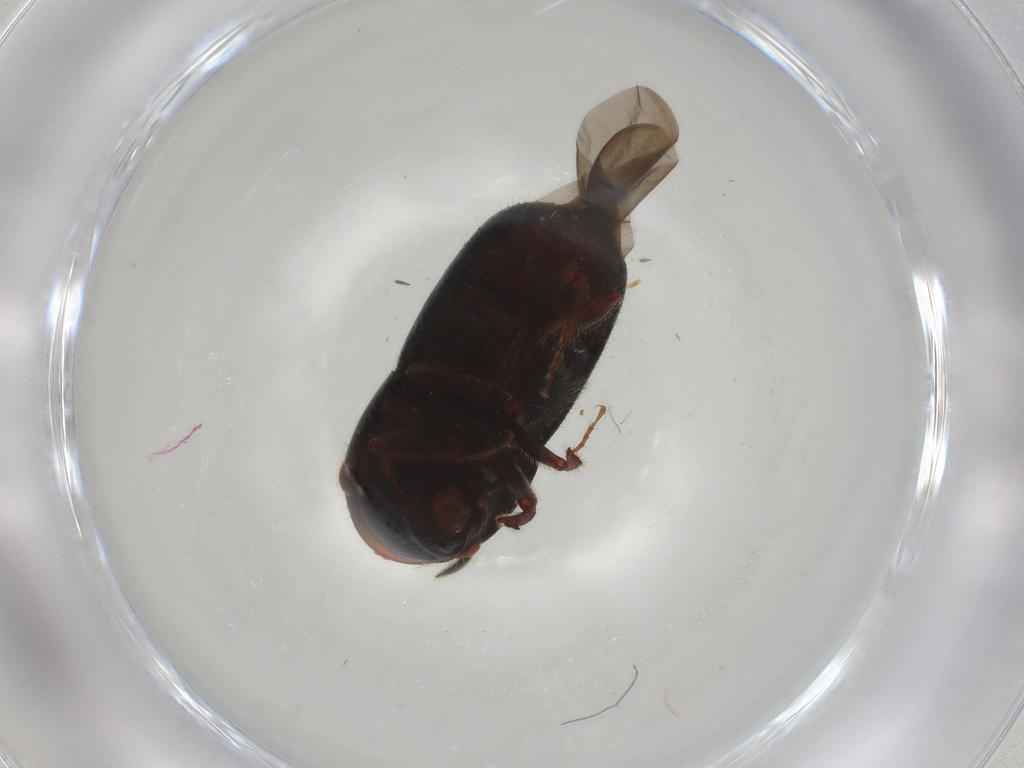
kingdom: Animalia
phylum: Arthropoda
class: Insecta
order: Coleoptera
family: Curculionidae
